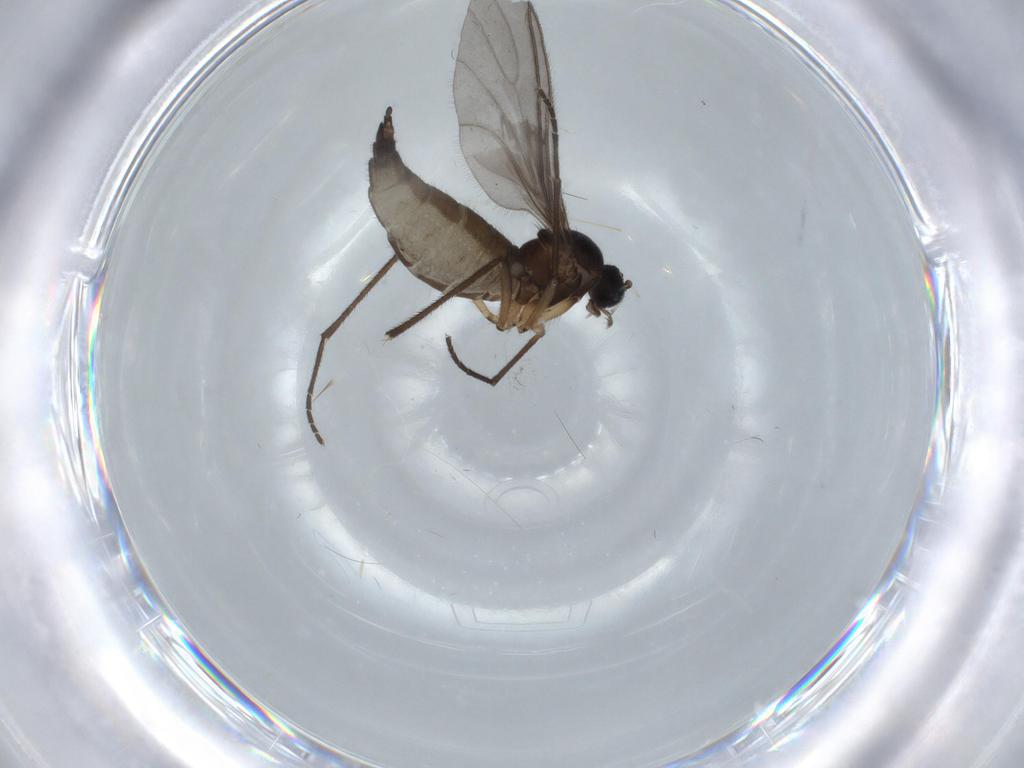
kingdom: Animalia
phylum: Arthropoda
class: Insecta
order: Diptera
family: Sciaridae
